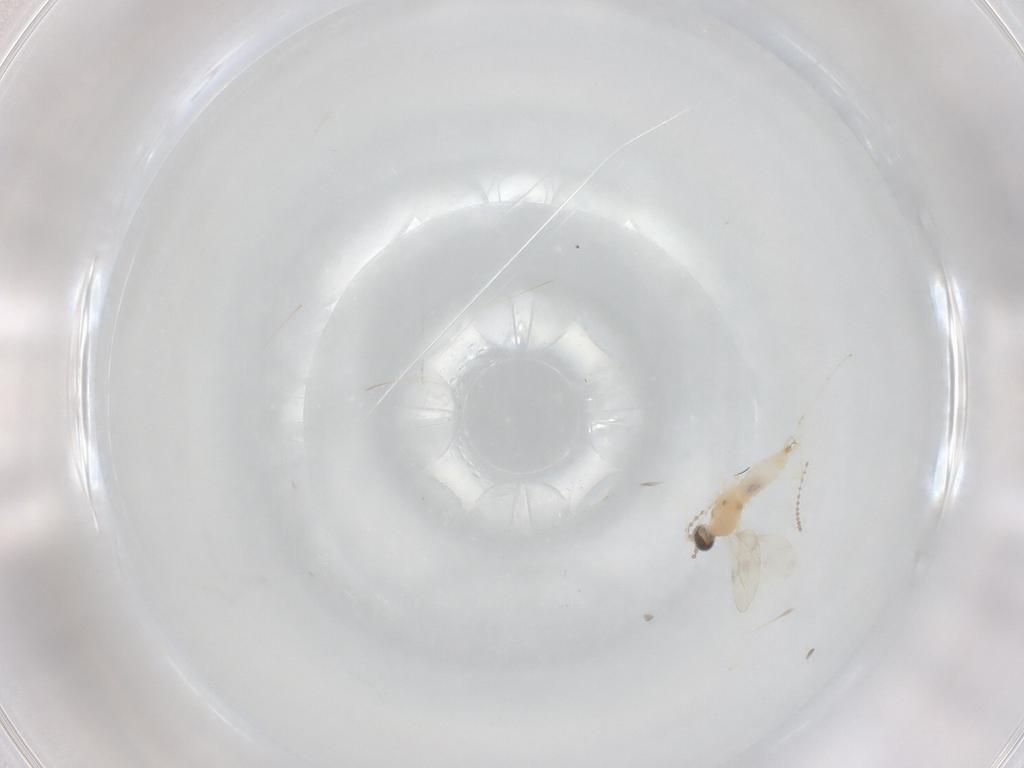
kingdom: Animalia
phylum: Arthropoda
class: Insecta
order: Diptera
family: Cecidomyiidae
